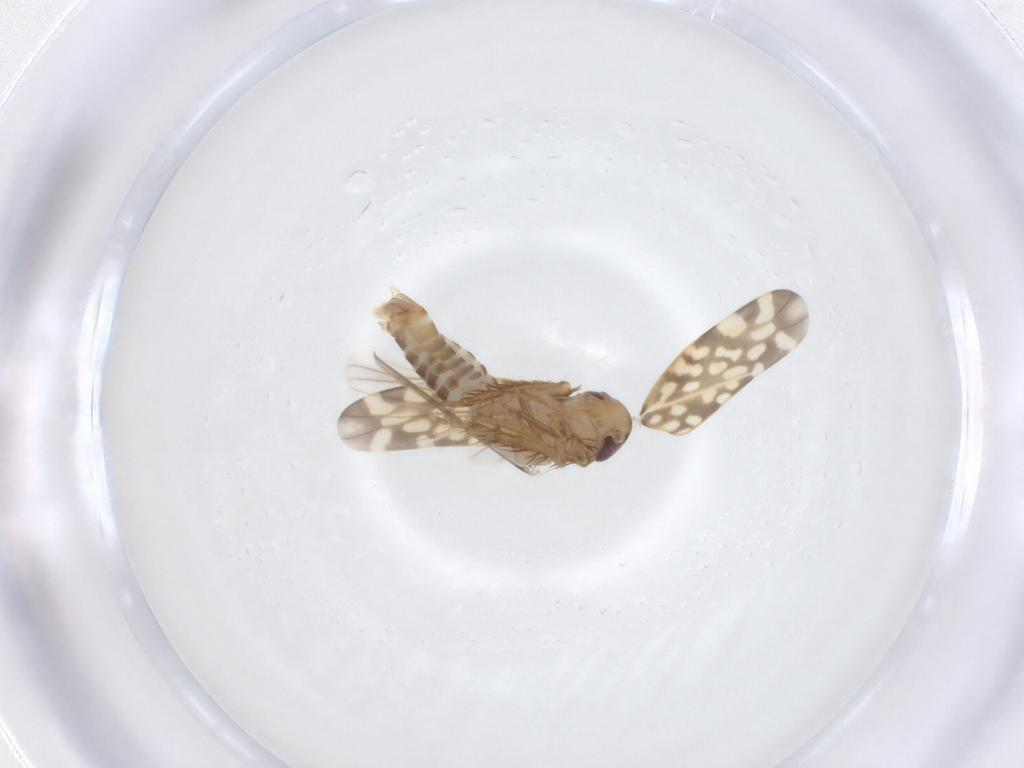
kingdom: Animalia
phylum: Arthropoda
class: Insecta
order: Hemiptera
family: Cicadellidae
